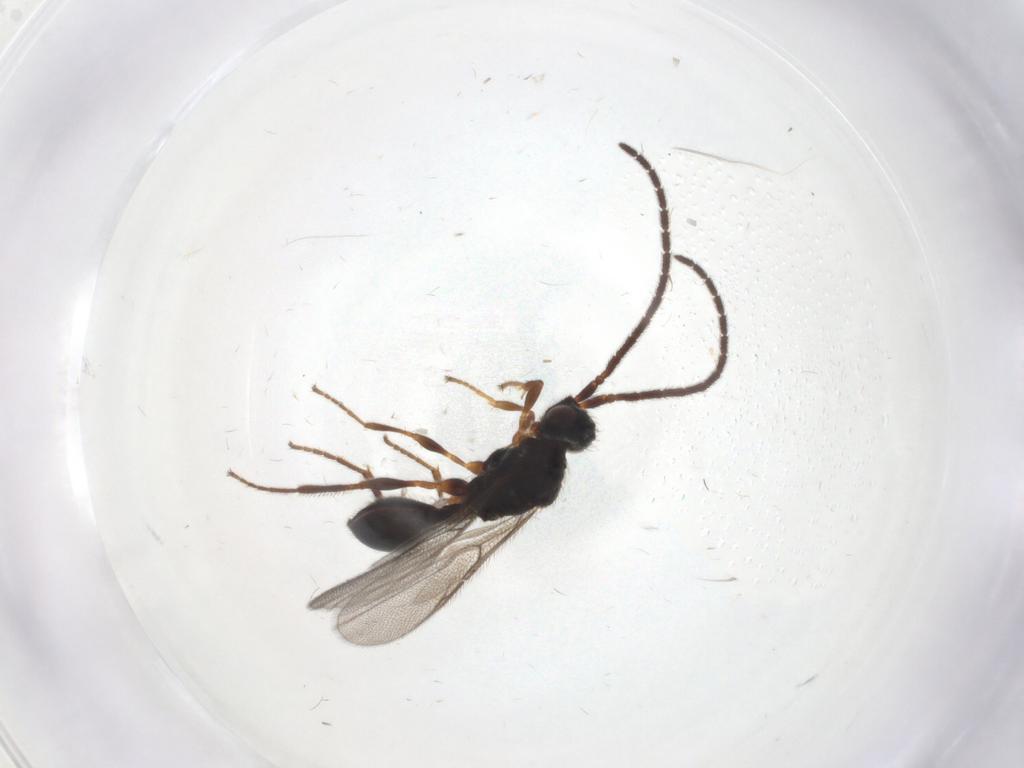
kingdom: Animalia
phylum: Arthropoda
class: Insecta
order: Hymenoptera
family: Diapriidae
